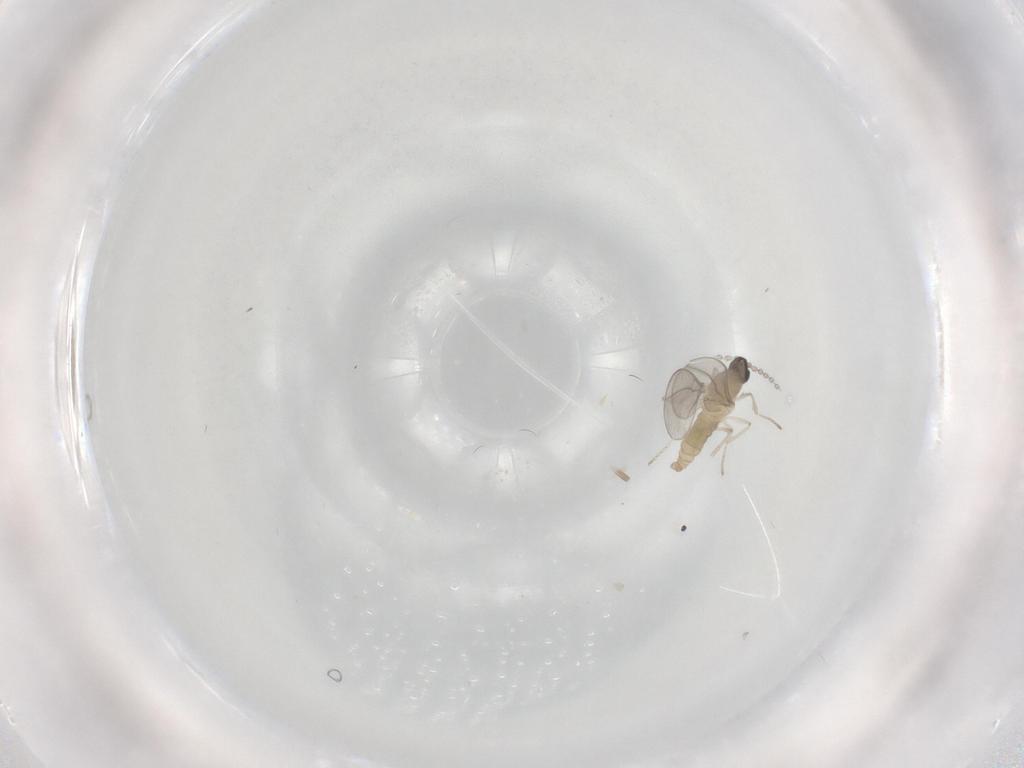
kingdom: Animalia
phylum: Arthropoda
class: Insecta
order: Diptera
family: Cecidomyiidae
